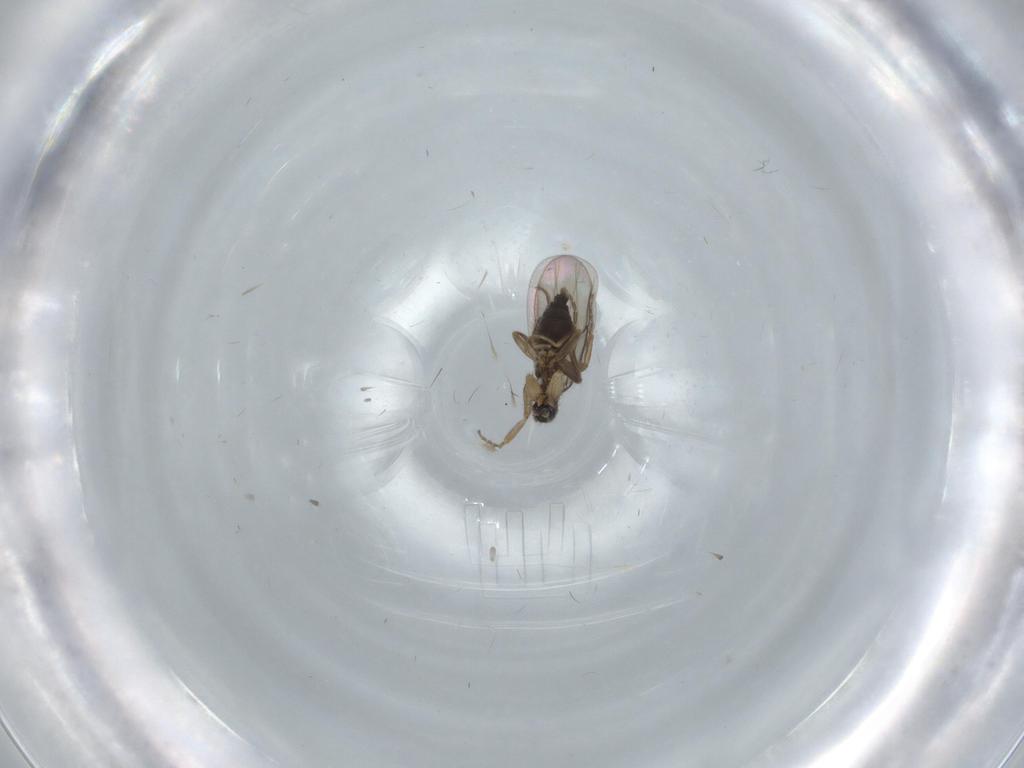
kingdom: Animalia
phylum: Arthropoda
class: Insecta
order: Diptera
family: Phoridae
